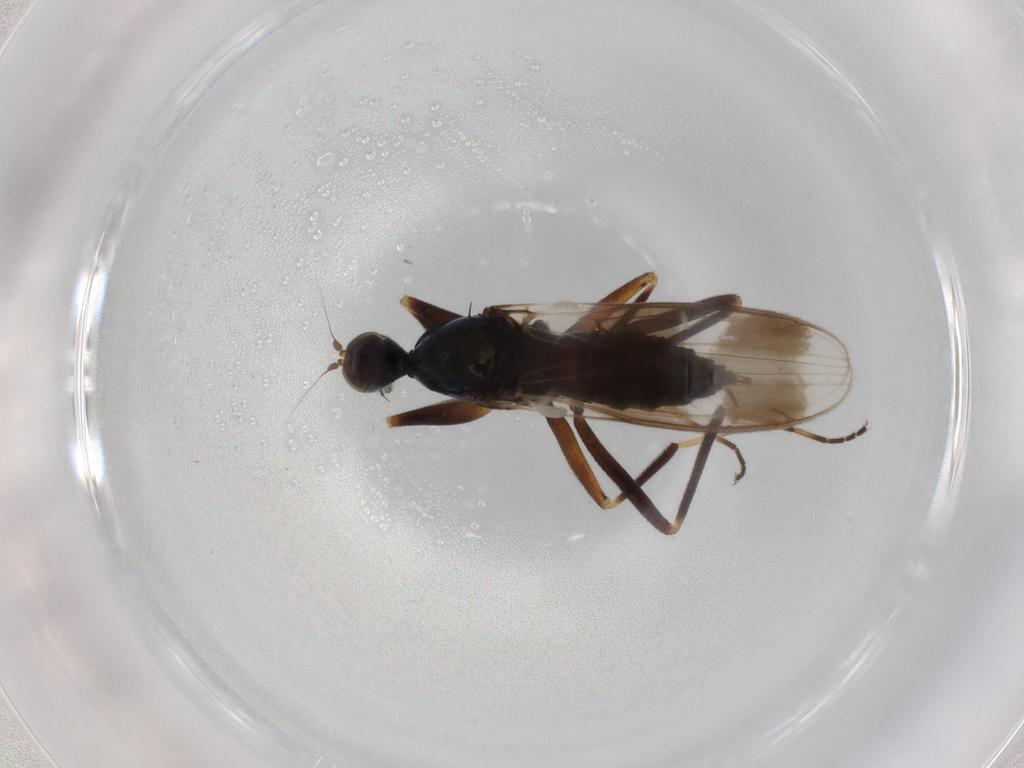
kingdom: Animalia
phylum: Arthropoda
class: Insecta
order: Diptera
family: Hybotidae
